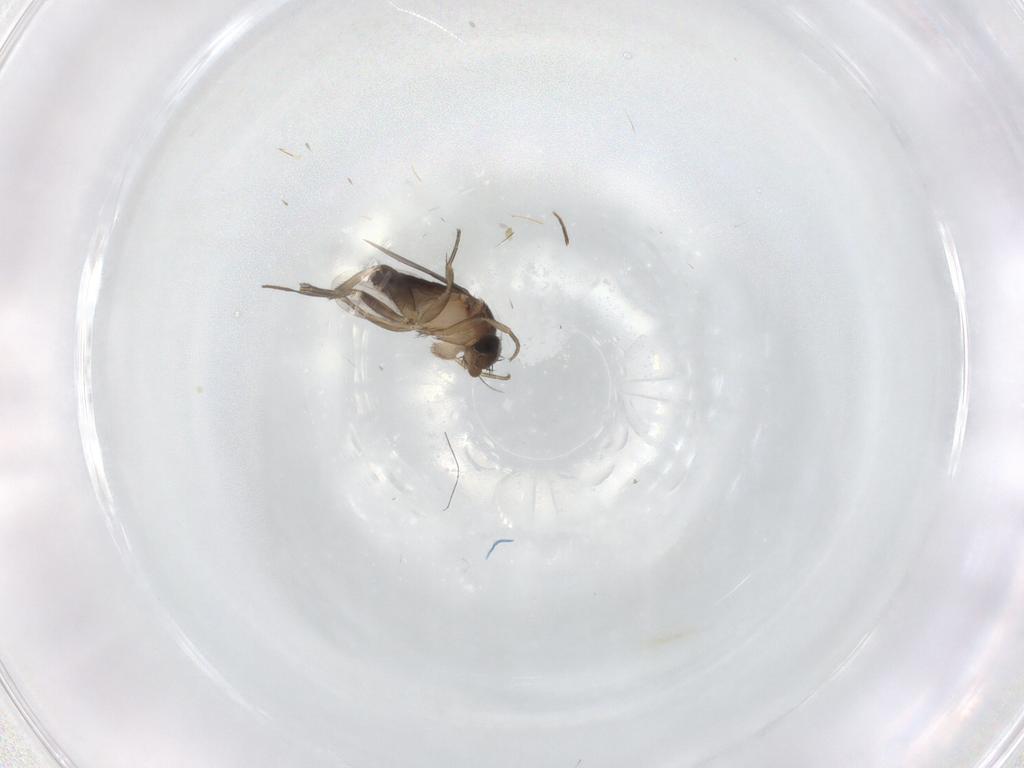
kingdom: Animalia
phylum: Arthropoda
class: Insecta
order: Diptera
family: Phoridae
